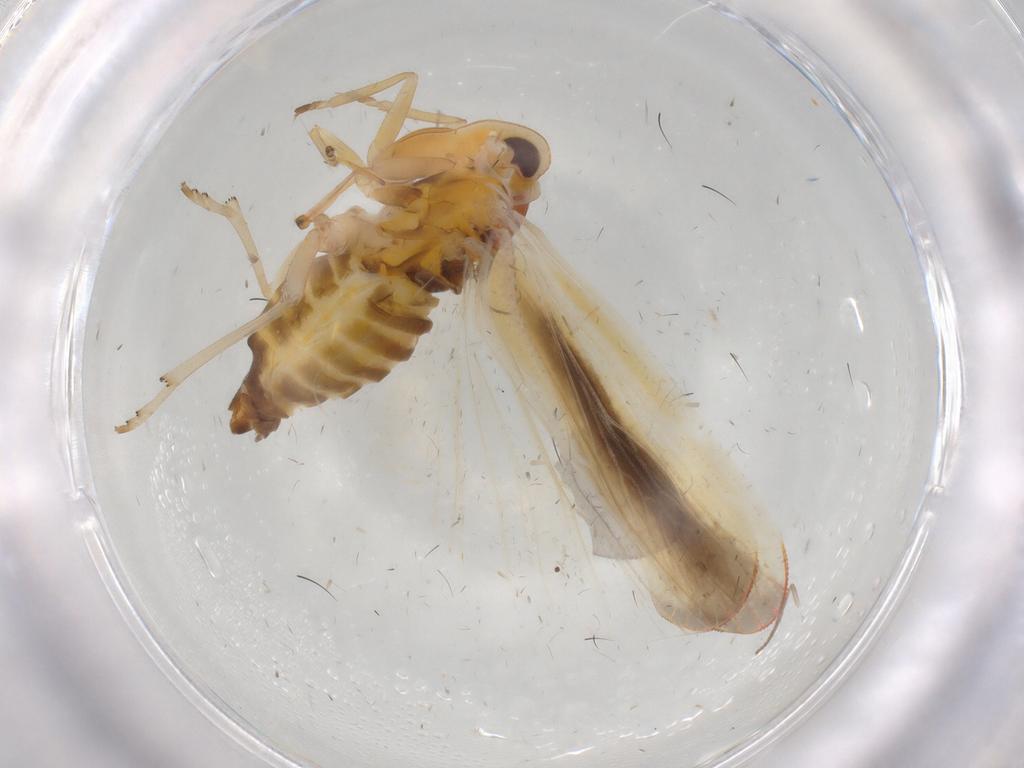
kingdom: Animalia
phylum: Arthropoda
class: Insecta
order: Hemiptera
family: Derbidae
